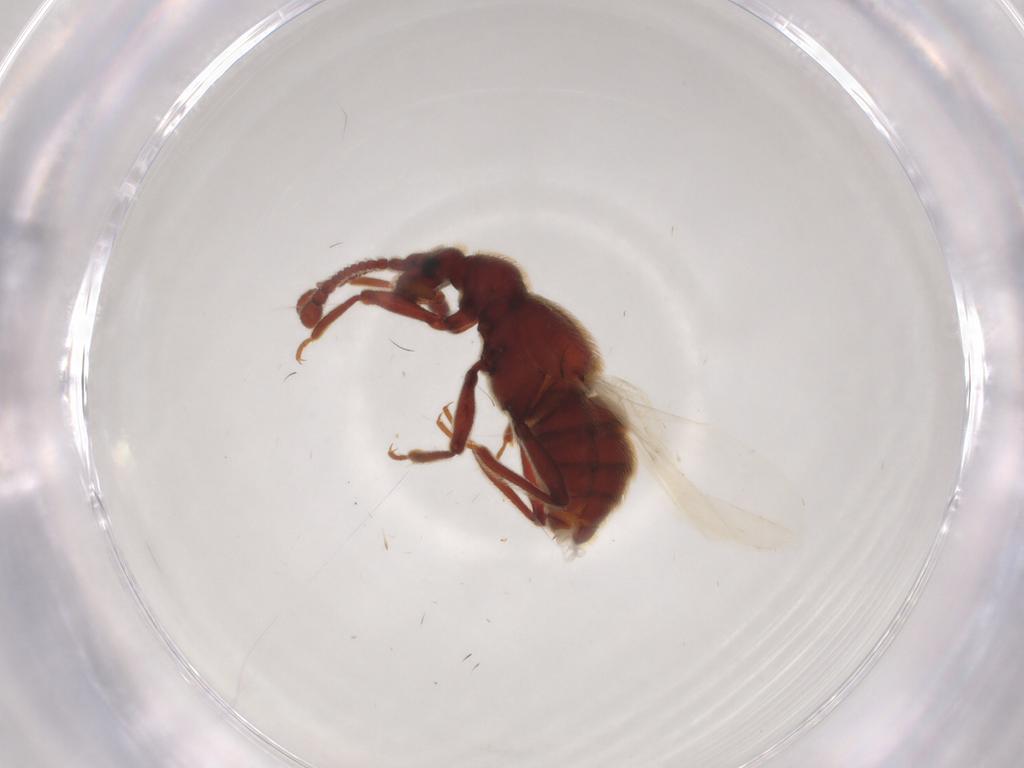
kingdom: Animalia
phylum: Arthropoda
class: Insecta
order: Coleoptera
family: Staphylinidae
